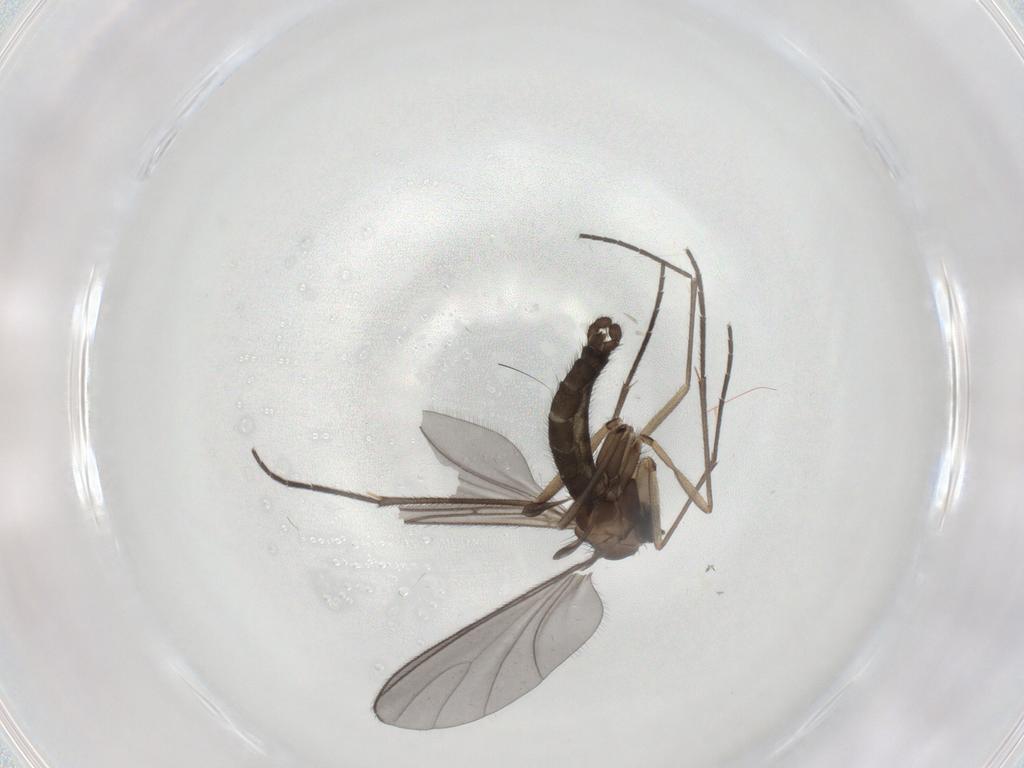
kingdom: Animalia
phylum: Arthropoda
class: Insecta
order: Diptera
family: Sciaridae
